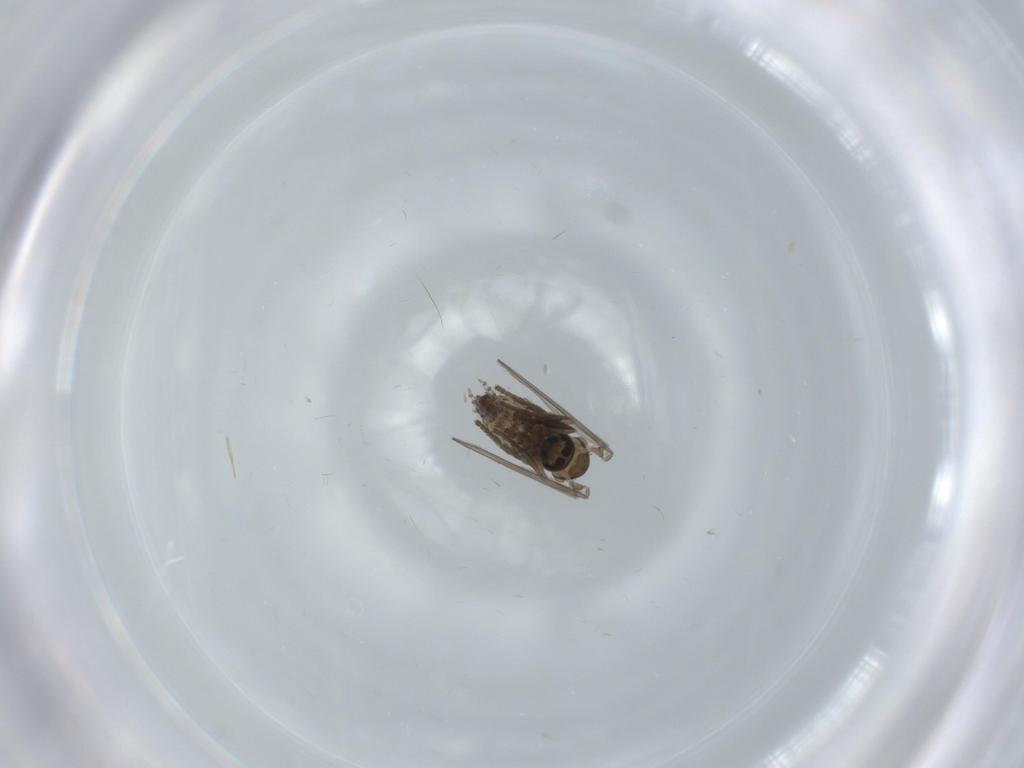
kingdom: Animalia
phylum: Arthropoda
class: Insecta
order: Diptera
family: Psychodidae
